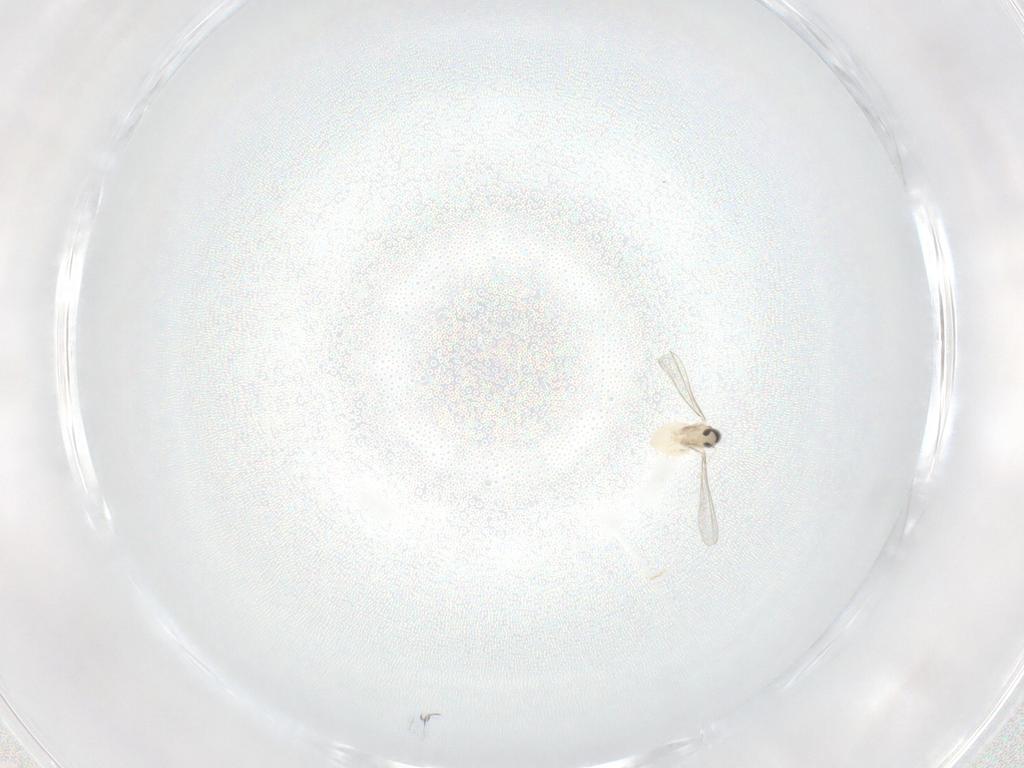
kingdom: Animalia
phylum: Arthropoda
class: Insecta
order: Diptera
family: Cecidomyiidae
